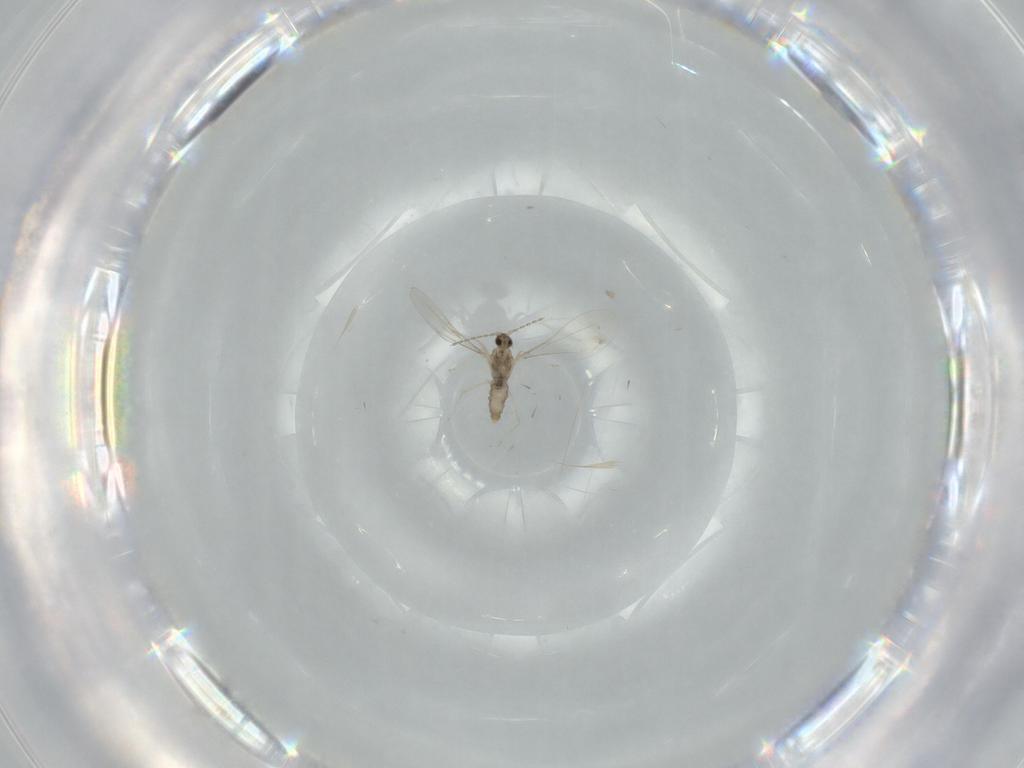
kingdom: Animalia
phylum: Arthropoda
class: Insecta
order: Diptera
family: Cecidomyiidae
